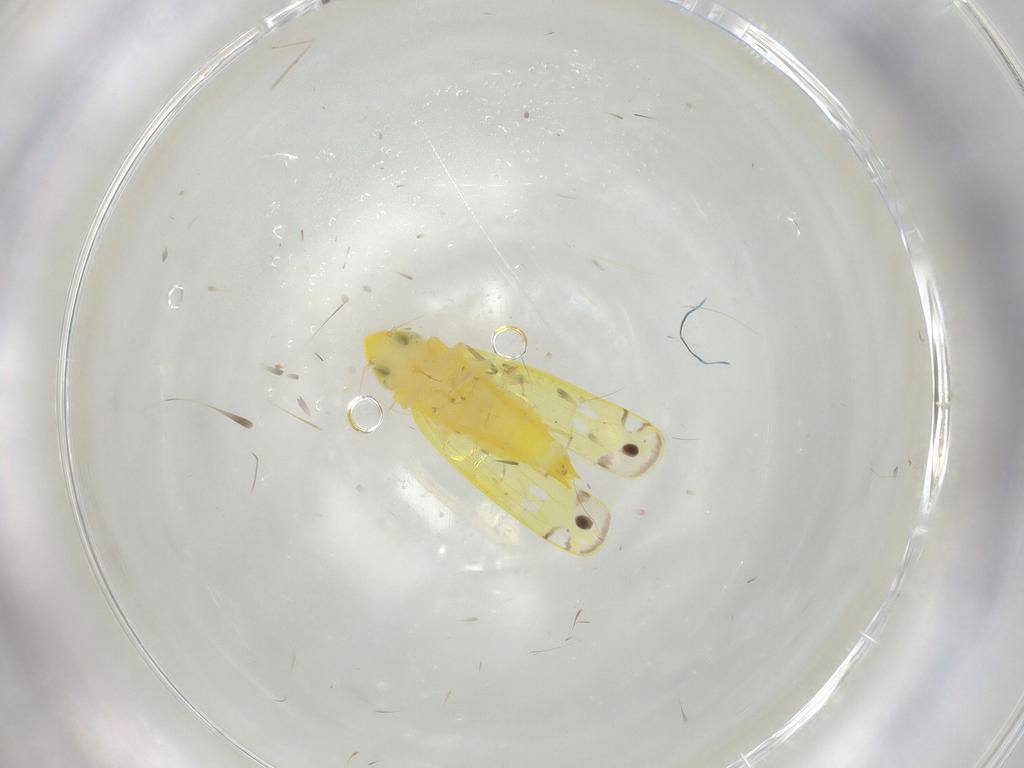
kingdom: Animalia
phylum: Arthropoda
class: Insecta
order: Hemiptera
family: Cicadellidae
